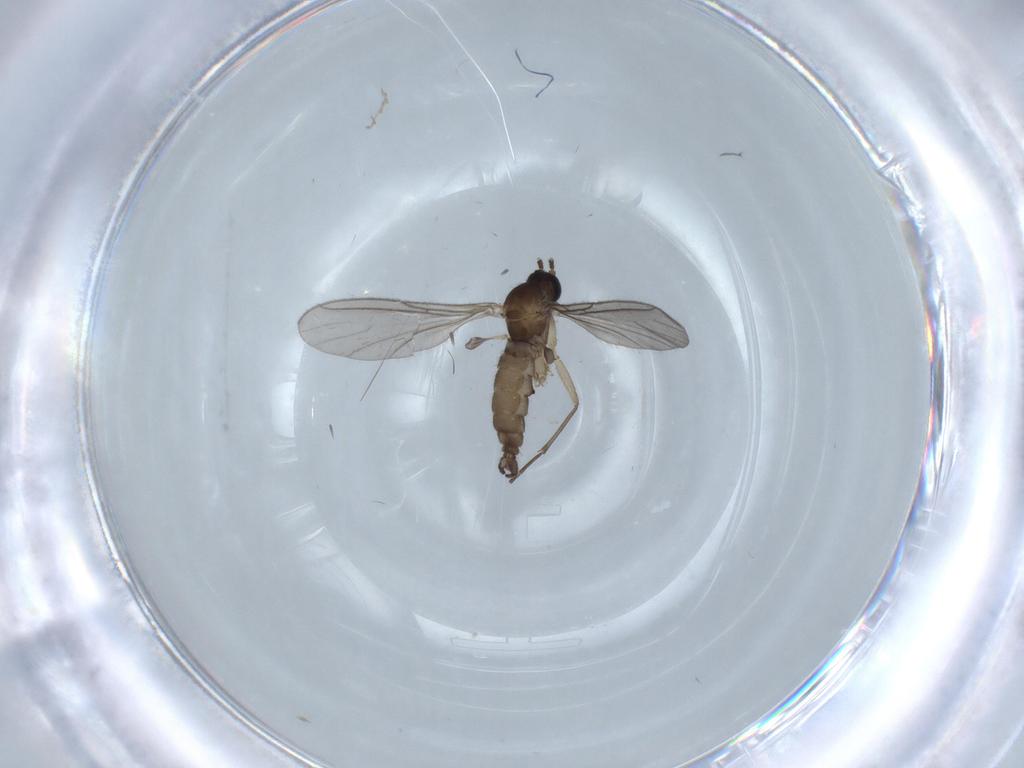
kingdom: Animalia
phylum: Arthropoda
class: Insecta
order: Diptera
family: Sciaridae
